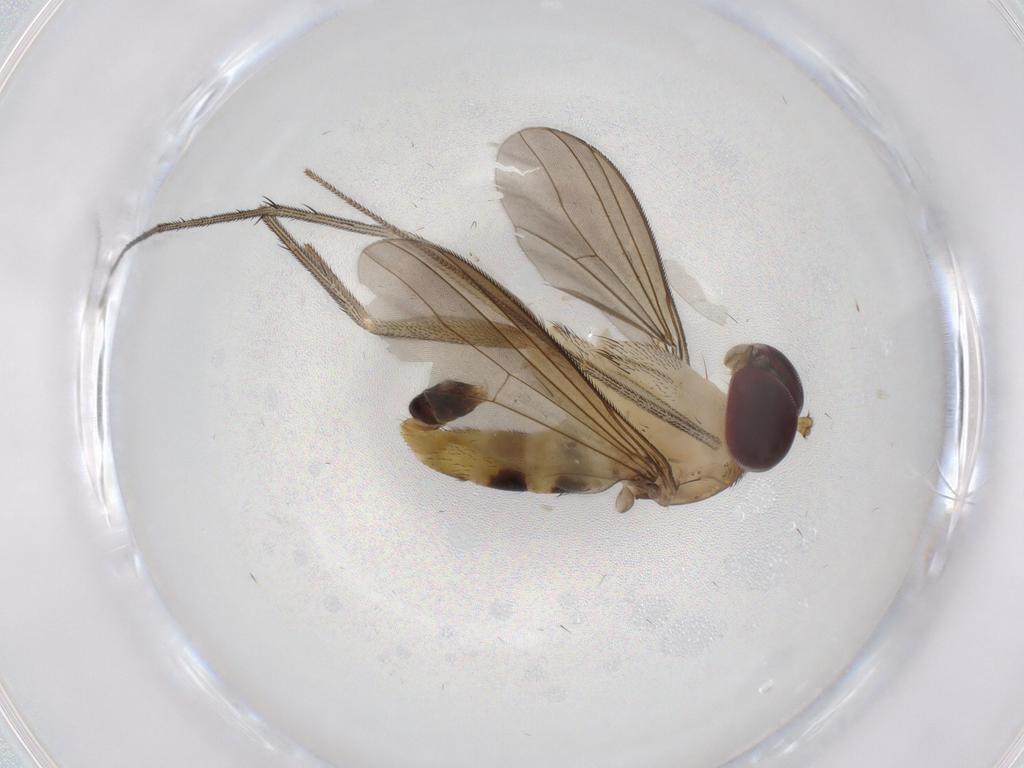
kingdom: Animalia
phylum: Arthropoda
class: Insecta
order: Diptera
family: Dolichopodidae
